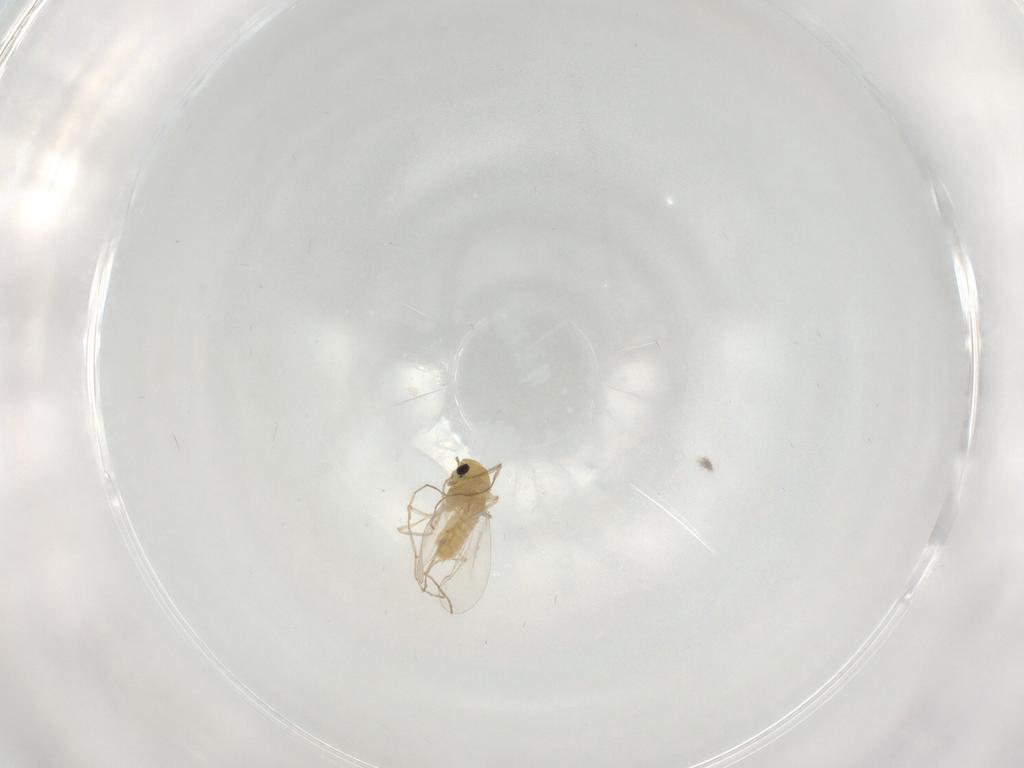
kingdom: Animalia
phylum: Arthropoda
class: Insecta
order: Diptera
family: Chironomidae
